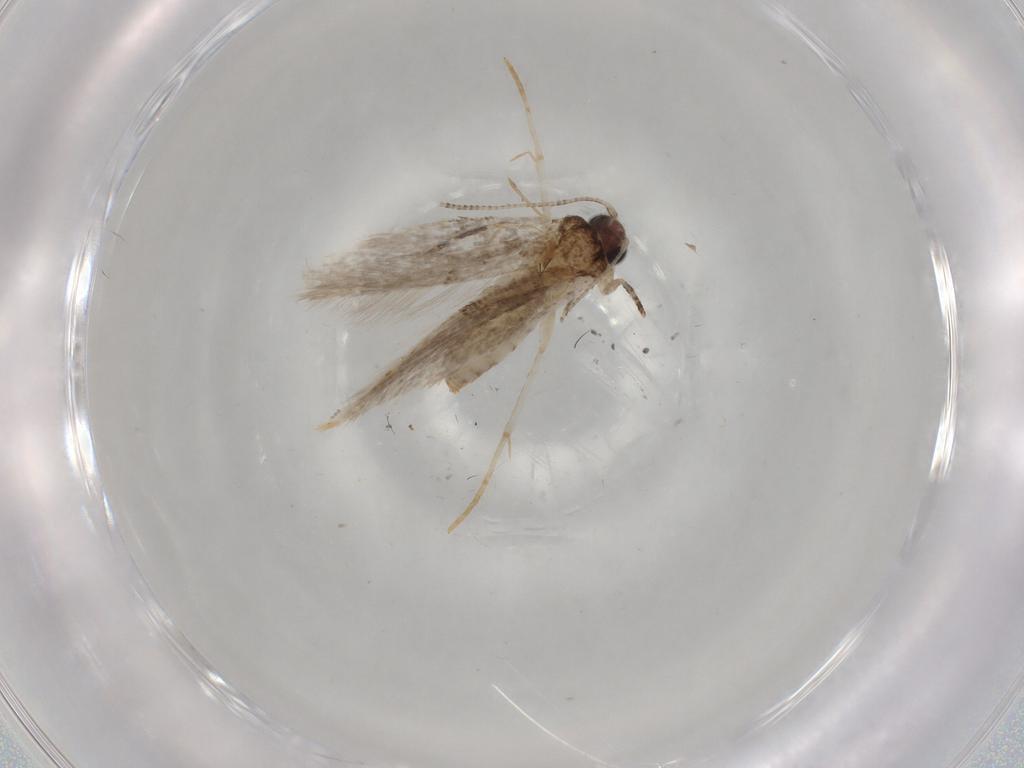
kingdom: Animalia
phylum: Arthropoda
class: Insecta
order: Lepidoptera
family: Tineidae
